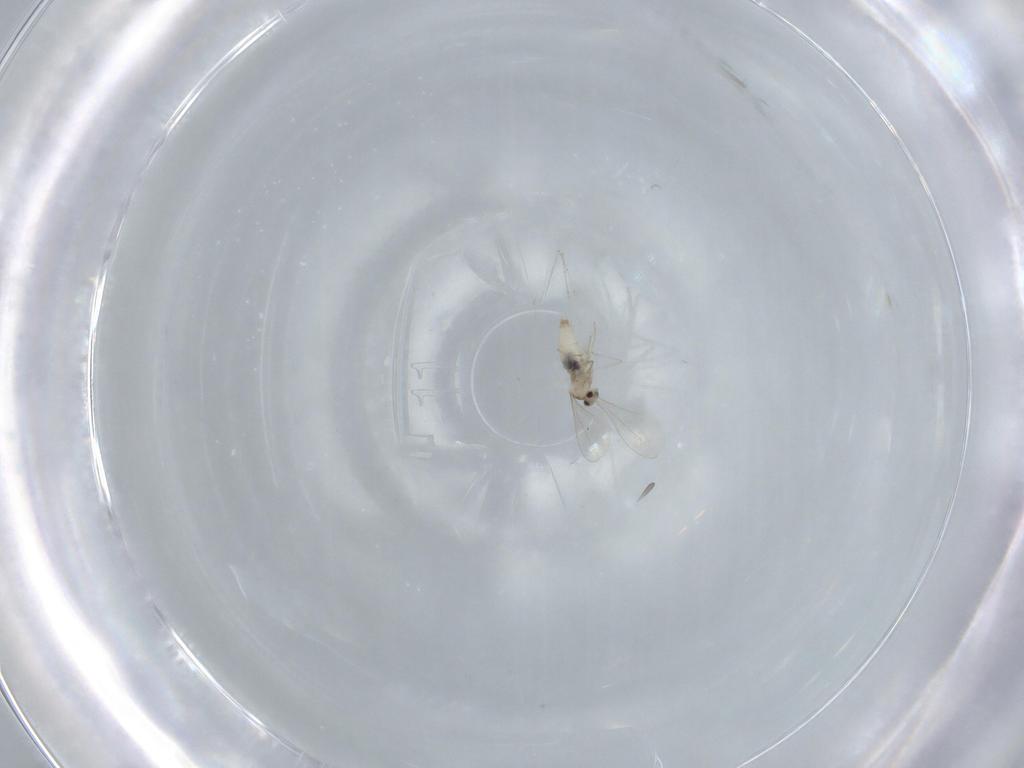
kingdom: Animalia
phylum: Arthropoda
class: Insecta
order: Diptera
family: Cecidomyiidae
